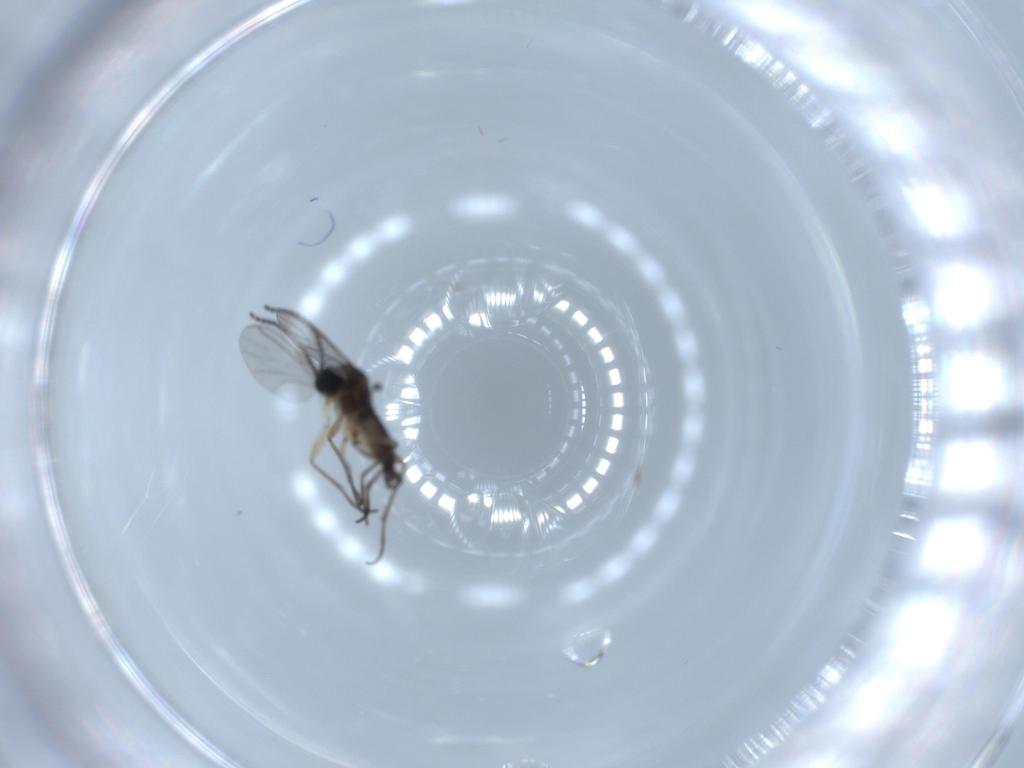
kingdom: Animalia
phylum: Arthropoda
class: Insecta
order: Diptera
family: Sciaridae
